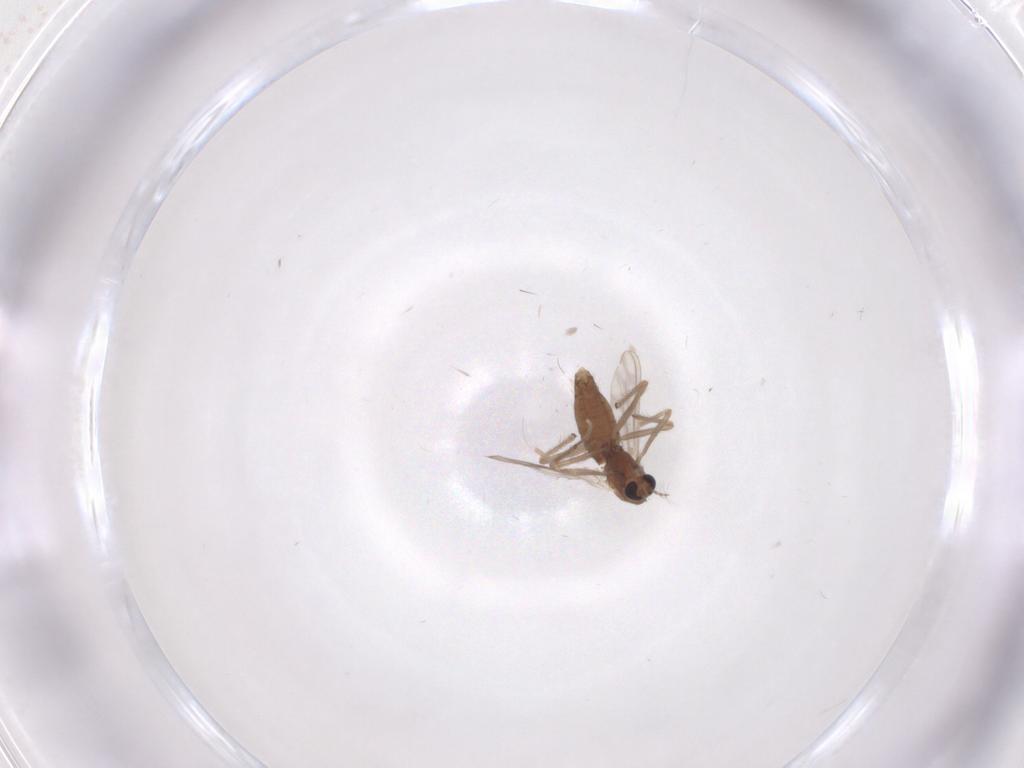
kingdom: Animalia
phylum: Arthropoda
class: Insecta
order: Diptera
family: Chironomidae
